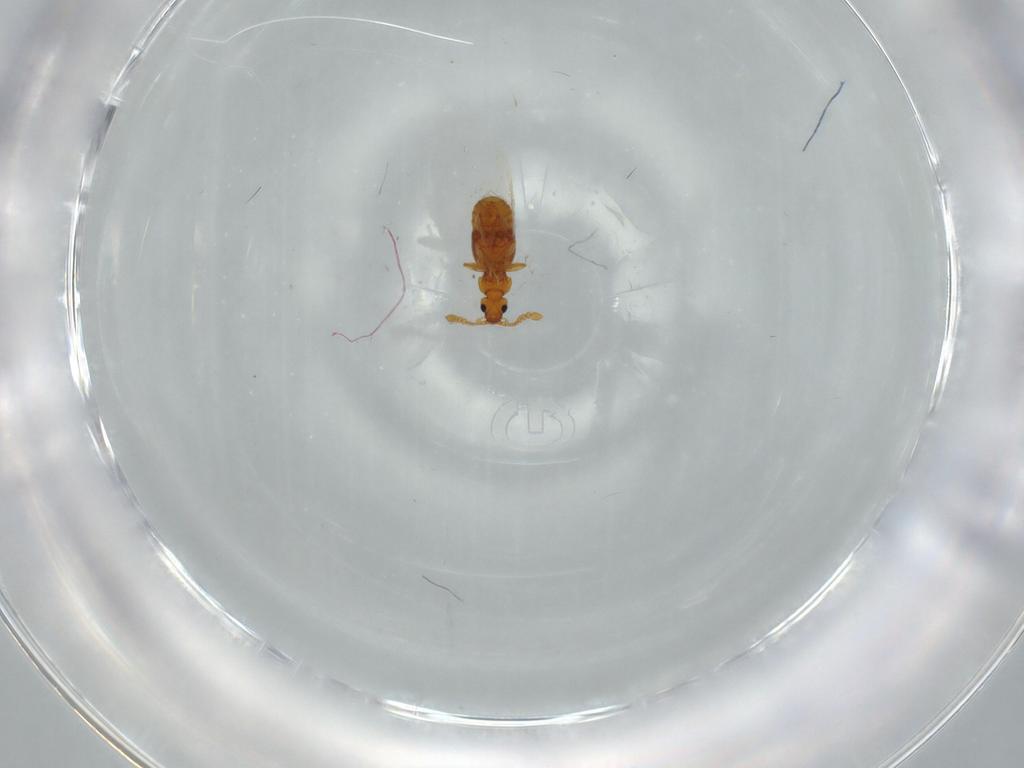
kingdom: Animalia
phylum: Arthropoda
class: Insecta
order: Coleoptera
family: Staphylinidae
